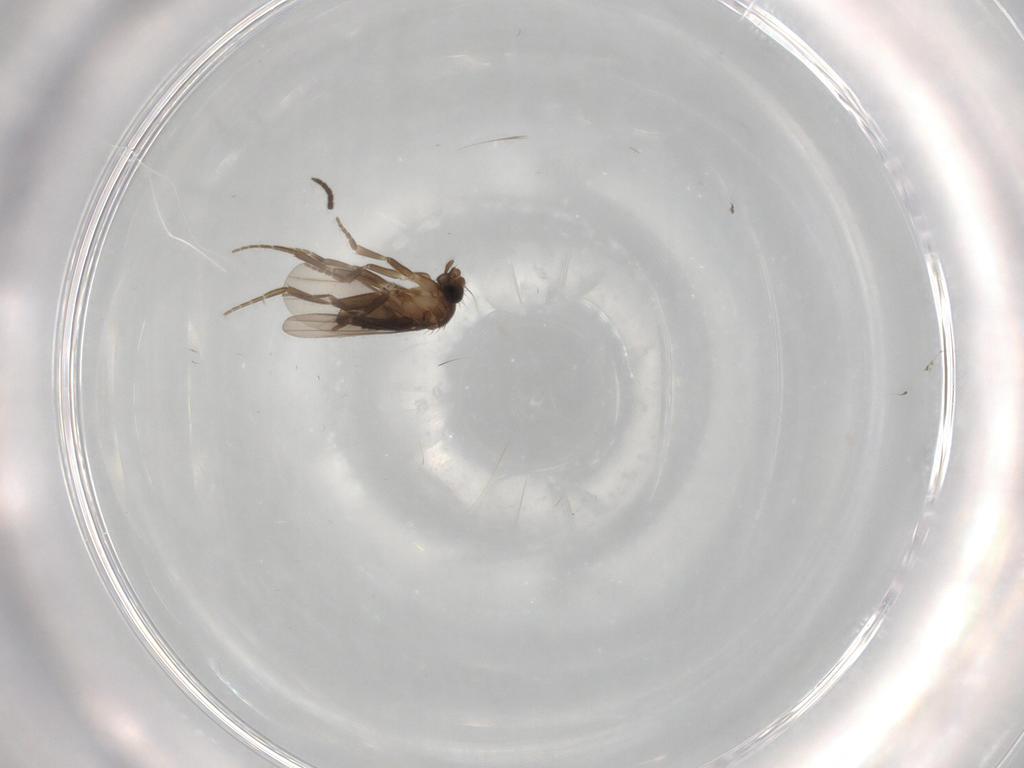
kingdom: Animalia
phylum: Arthropoda
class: Insecta
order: Diptera
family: Phoridae
